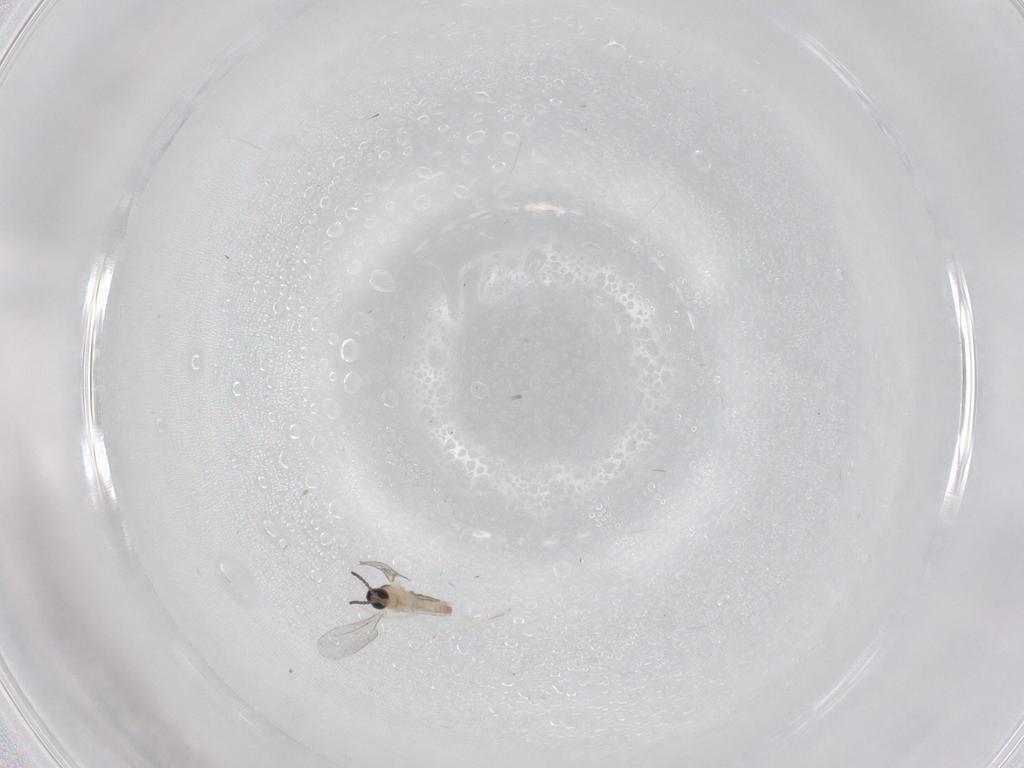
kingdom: Animalia
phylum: Arthropoda
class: Insecta
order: Diptera
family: Cecidomyiidae
